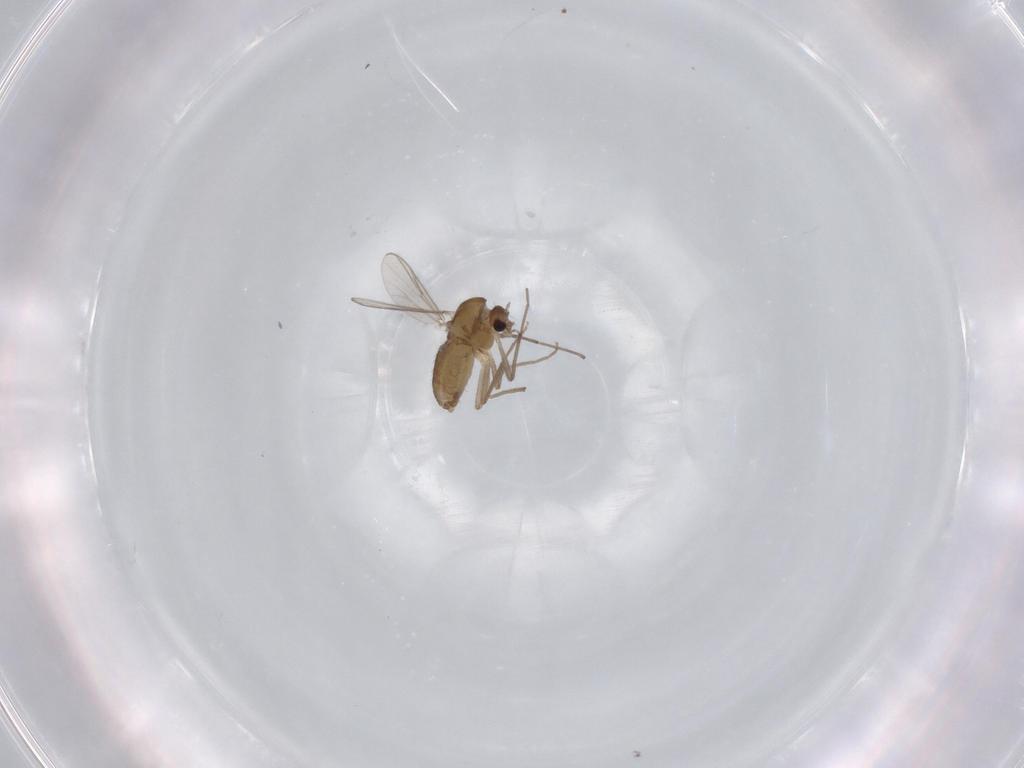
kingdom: Animalia
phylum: Arthropoda
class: Insecta
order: Diptera
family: Chironomidae
